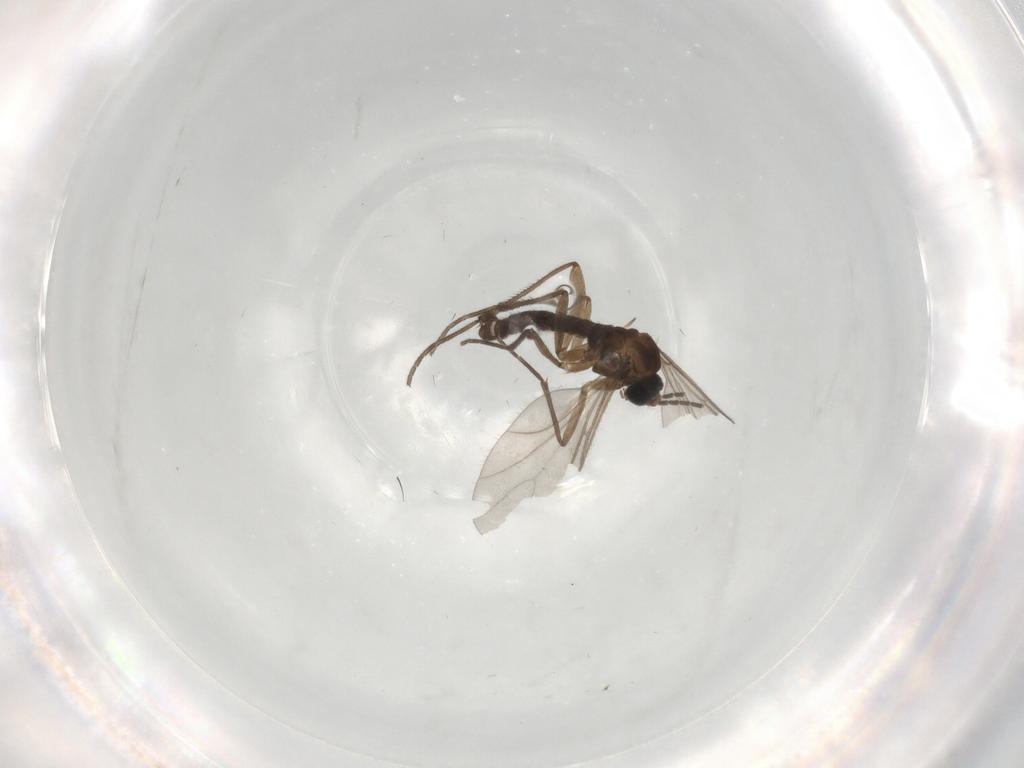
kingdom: Animalia
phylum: Arthropoda
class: Insecta
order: Diptera
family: Sciaridae
